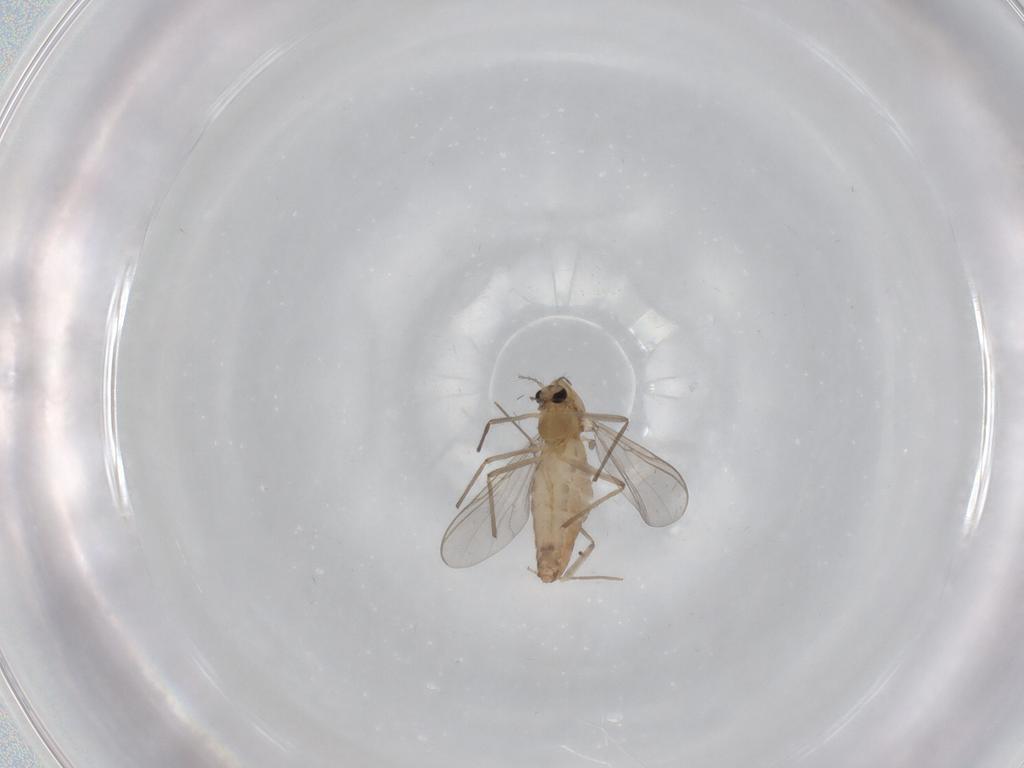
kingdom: Animalia
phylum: Arthropoda
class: Insecta
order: Diptera
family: Chironomidae
